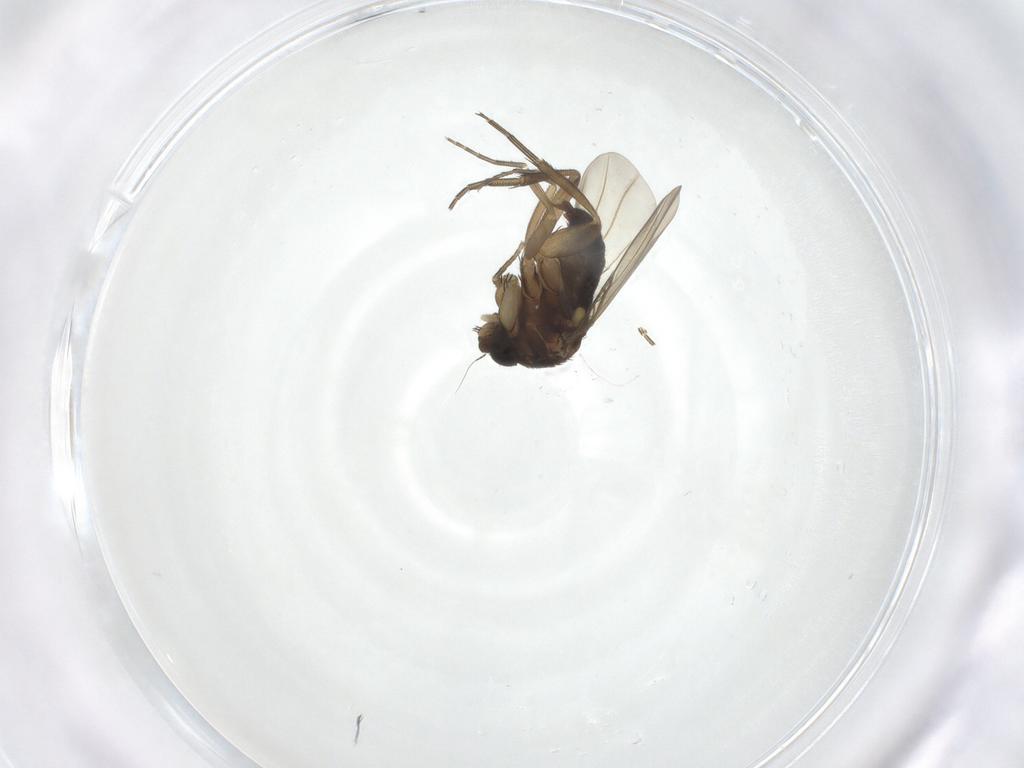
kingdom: Animalia
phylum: Arthropoda
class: Insecta
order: Diptera
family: Phoridae
